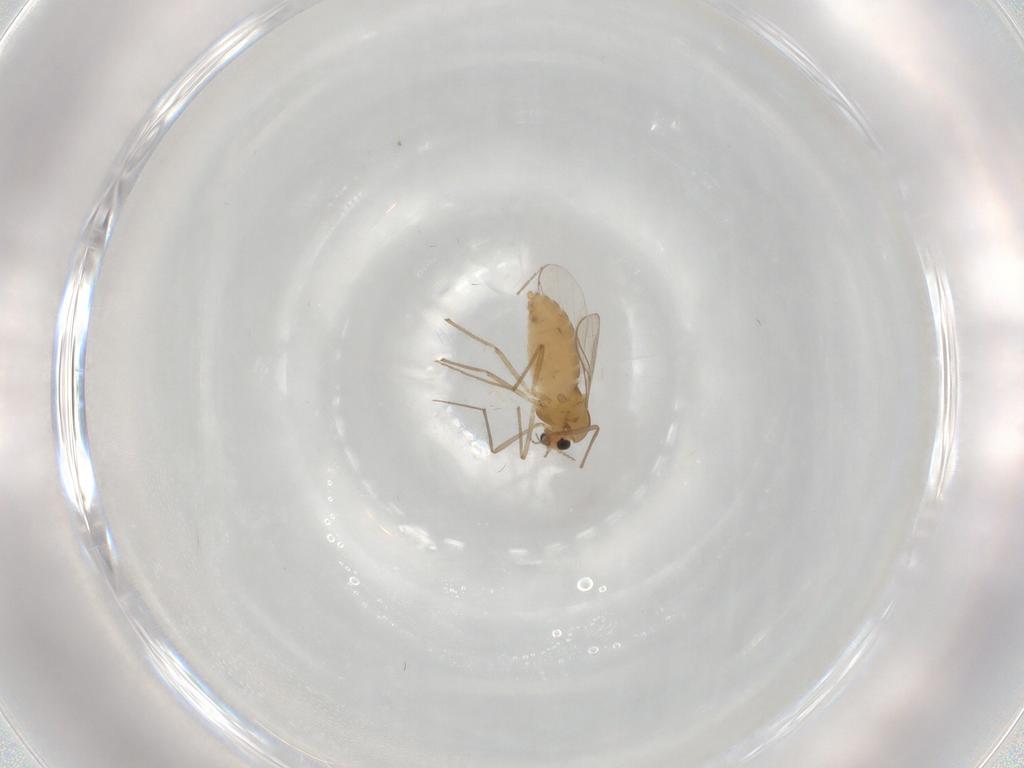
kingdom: Animalia
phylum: Arthropoda
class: Insecta
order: Diptera
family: Chironomidae
